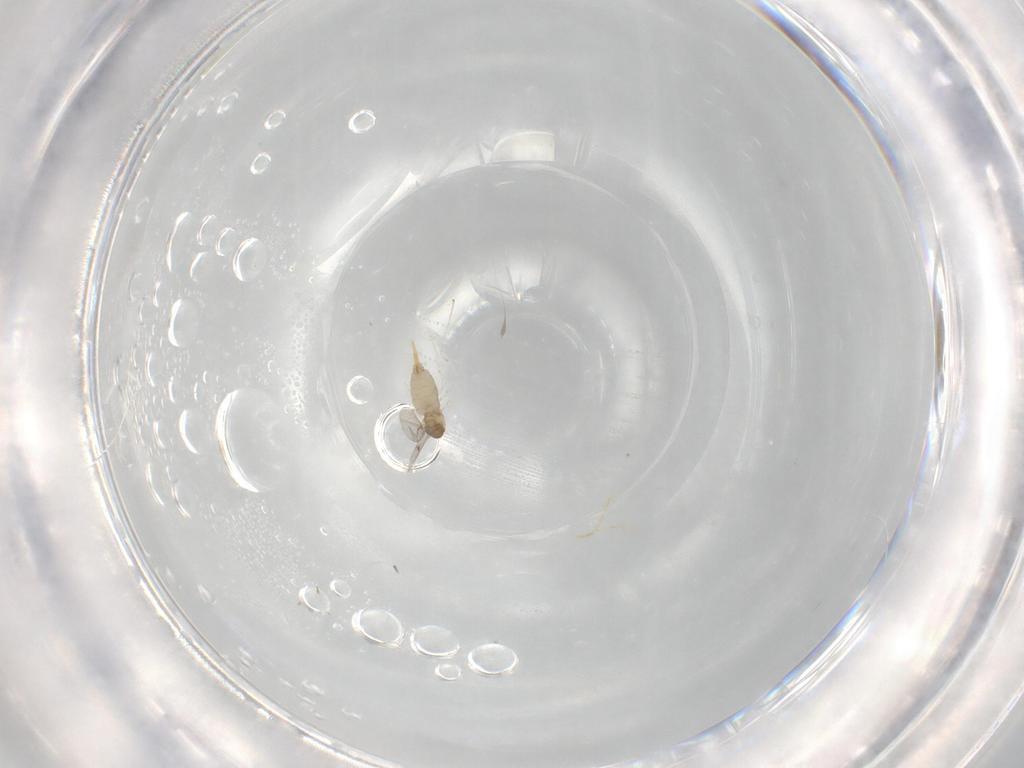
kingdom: Animalia
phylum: Arthropoda
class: Insecta
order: Diptera
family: Cecidomyiidae
